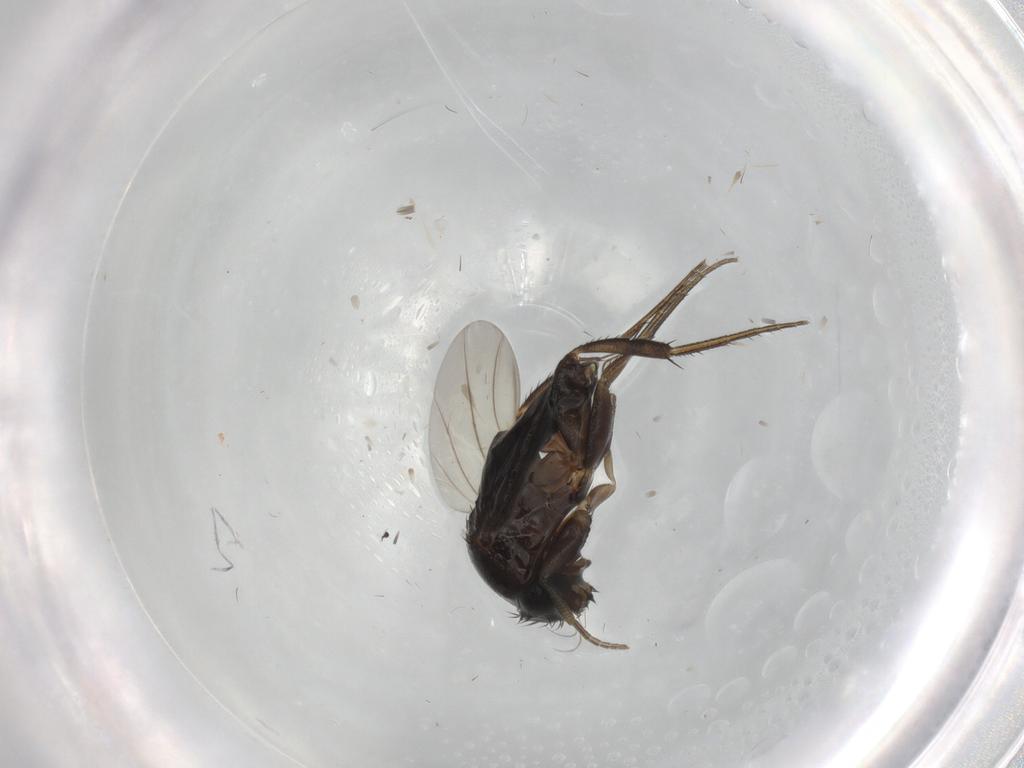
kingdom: Animalia
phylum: Arthropoda
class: Insecta
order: Diptera
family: Phoridae
